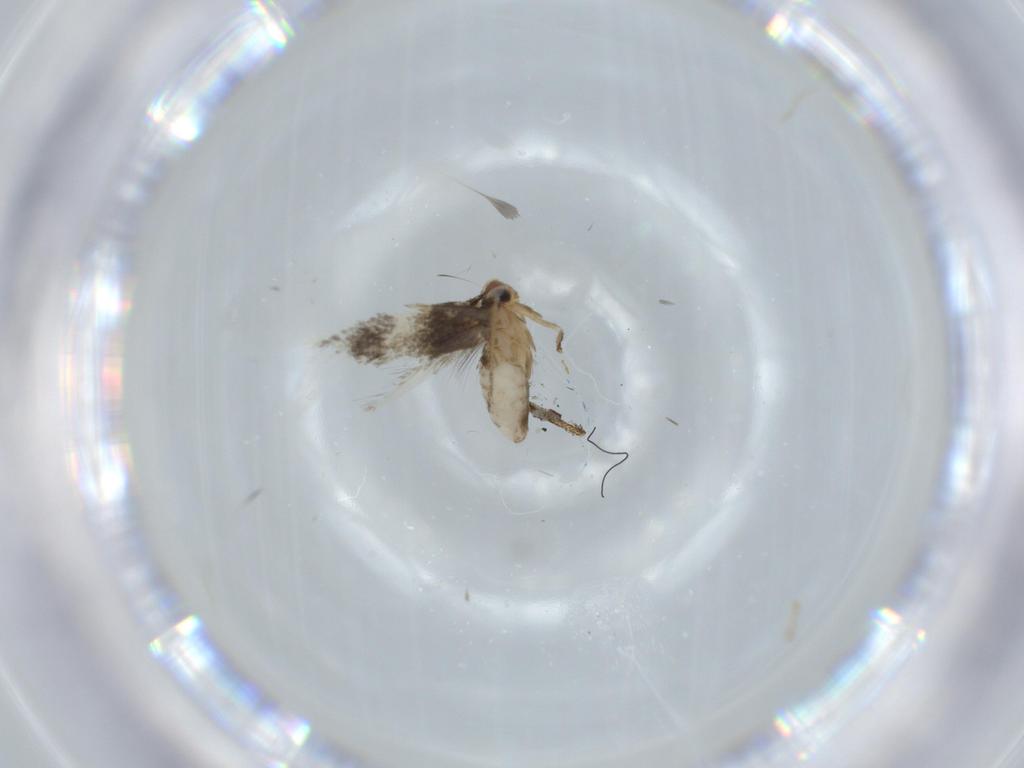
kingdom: Animalia
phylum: Arthropoda
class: Insecta
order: Lepidoptera
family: Nepticulidae
